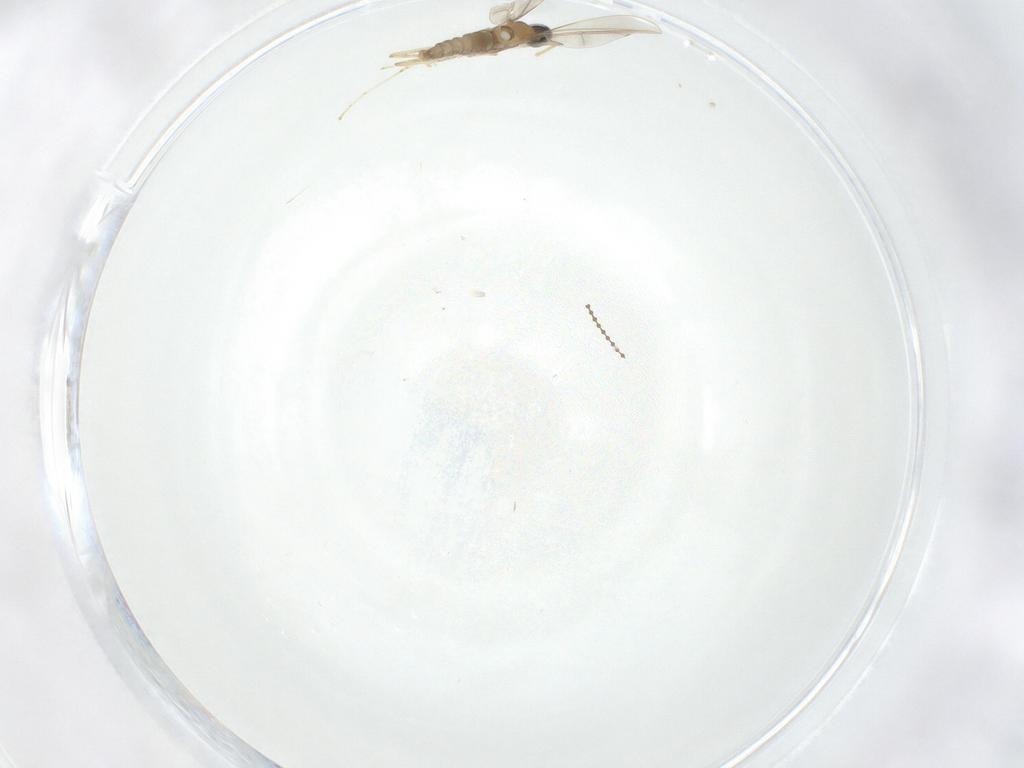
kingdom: Animalia
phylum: Arthropoda
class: Insecta
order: Diptera
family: Cecidomyiidae
